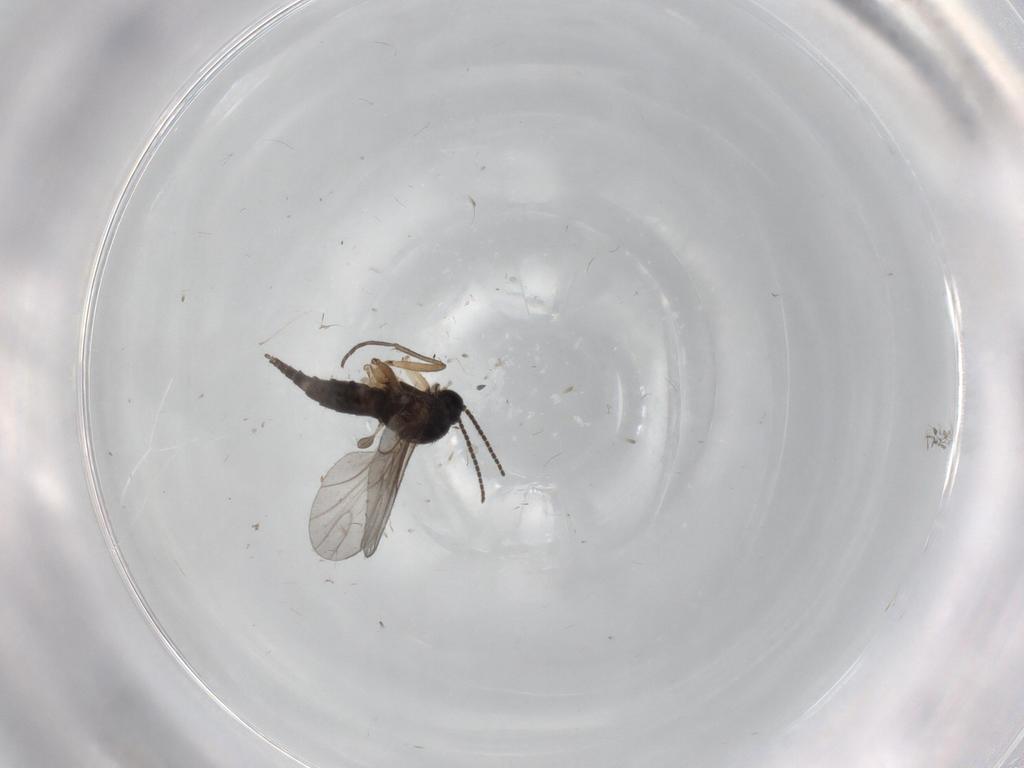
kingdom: Animalia
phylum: Arthropoda
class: Insecta
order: Diptera
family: Sciaridae
